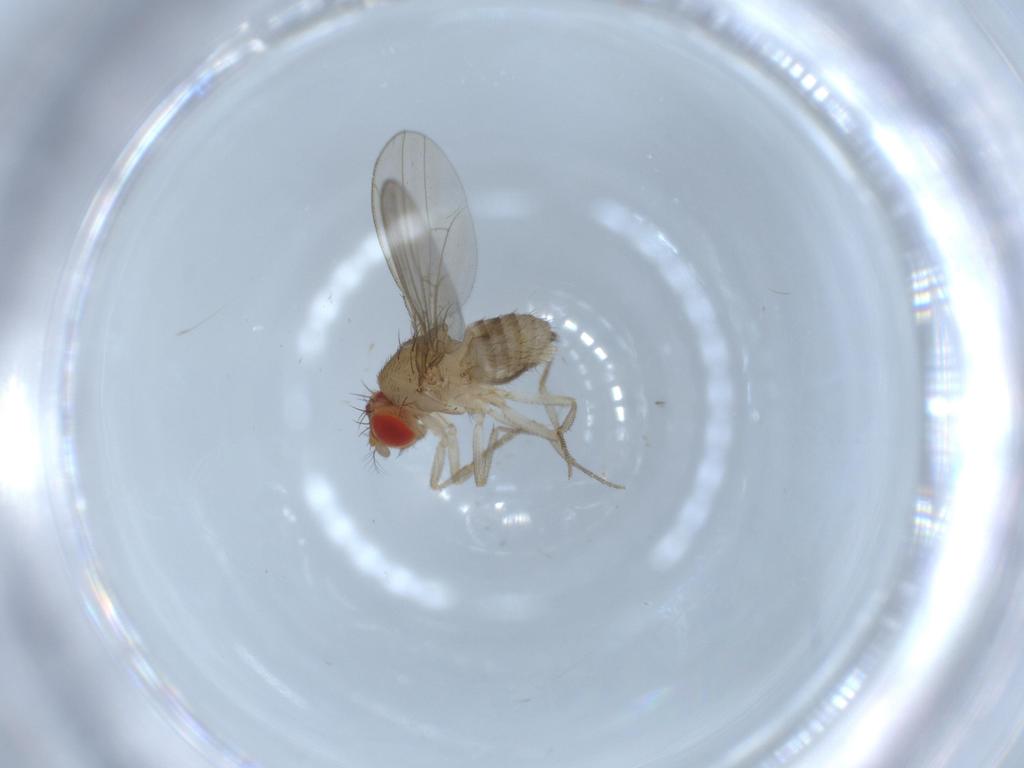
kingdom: Animalia
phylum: Arthropoda
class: Insecta
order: Diptera
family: Drosophilidae
